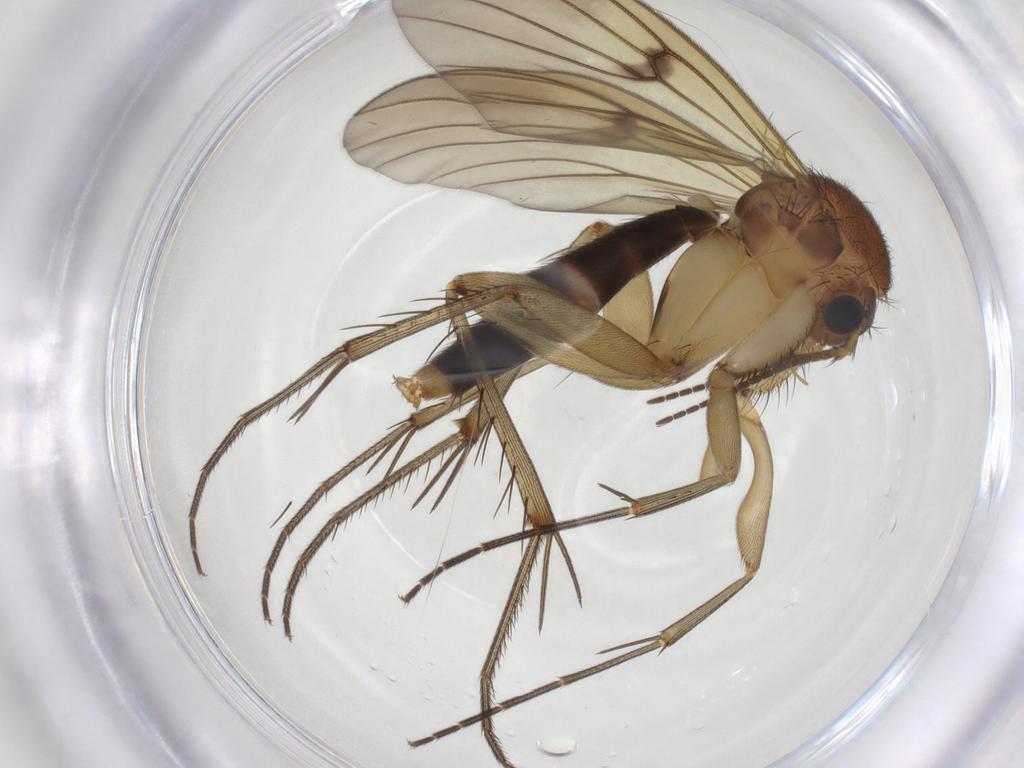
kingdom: Animalia
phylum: Arthropoda
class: Insecta
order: Diptera
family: Mycetophilidae
